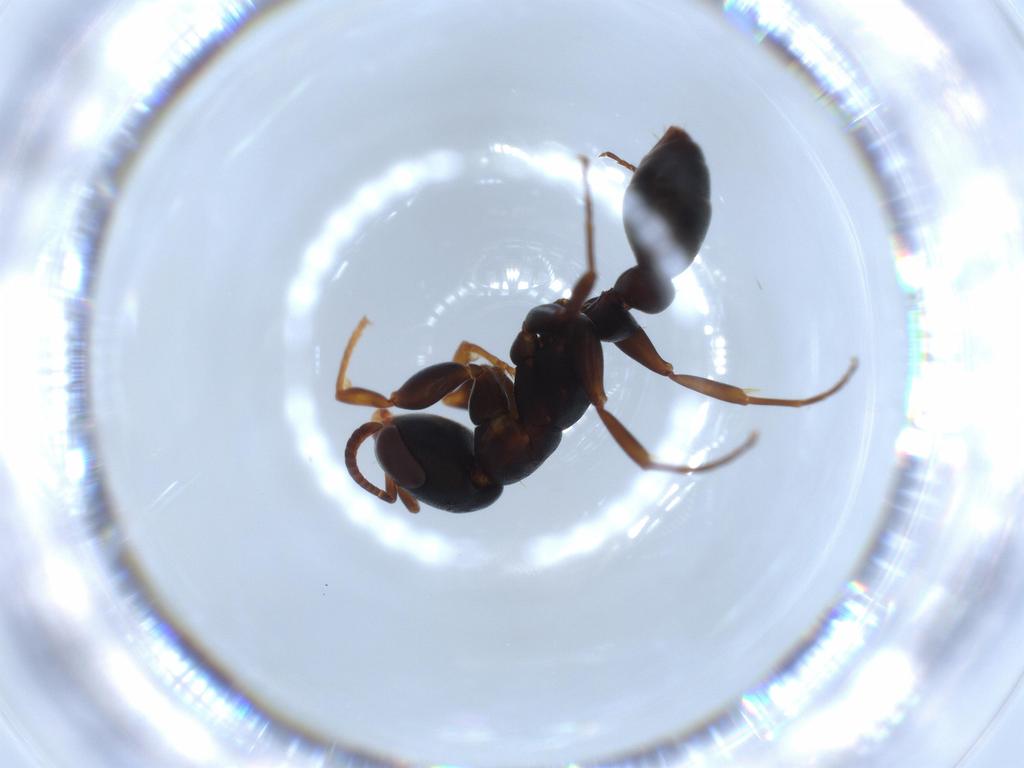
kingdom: Animalia
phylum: Arthropoda
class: Insecta
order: Hymenoptera
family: Formicidae
